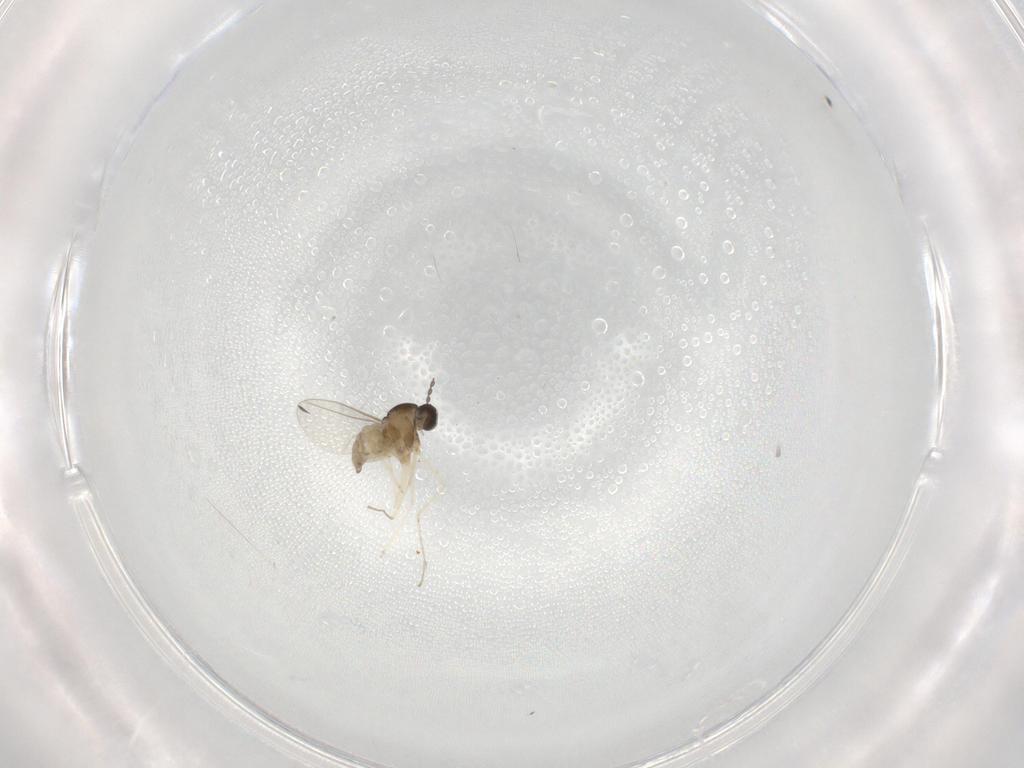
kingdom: Animalia
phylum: Arthropoda
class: Insecta
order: Diptera
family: Cecidomyiidae
